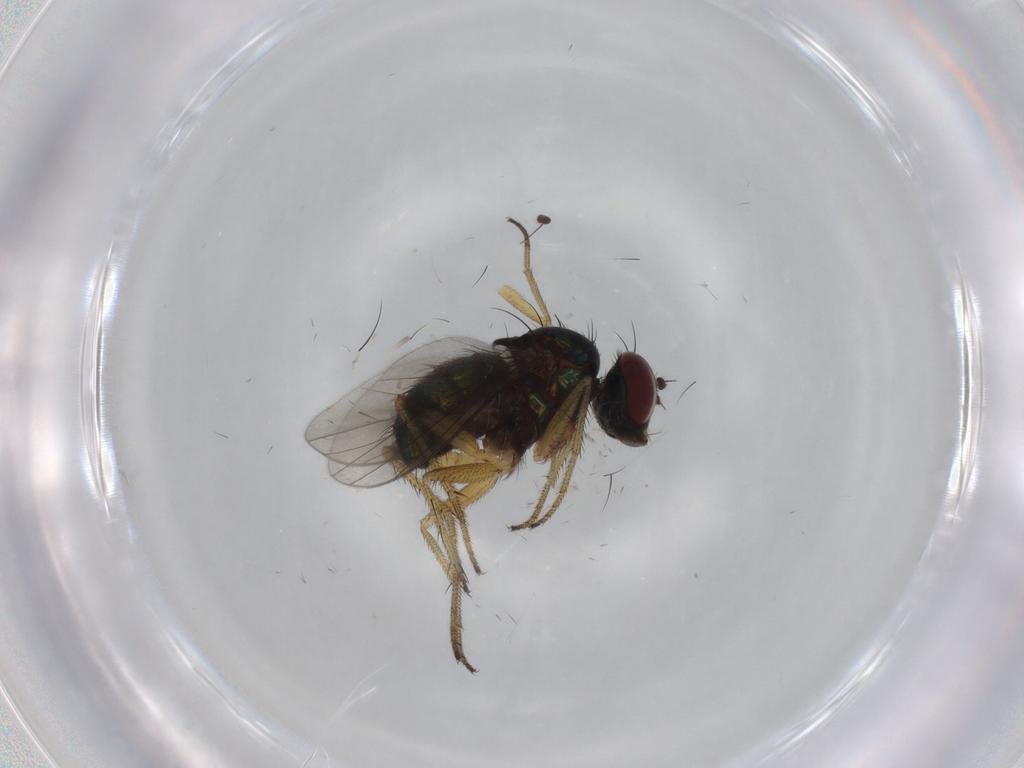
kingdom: Animalia
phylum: Arthropoda
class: Insecta
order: Diptera
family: Dolichopodidae
